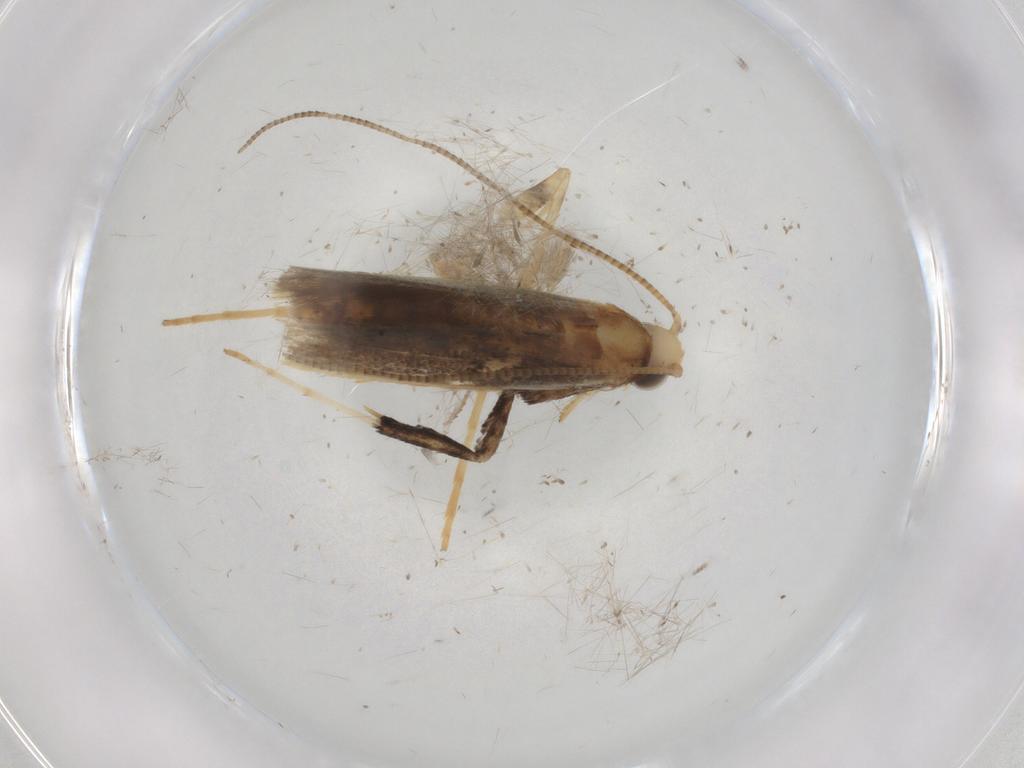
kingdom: Animalia
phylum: Arthropoda
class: Insecta
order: Lepidoptera
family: Gracillariidae
